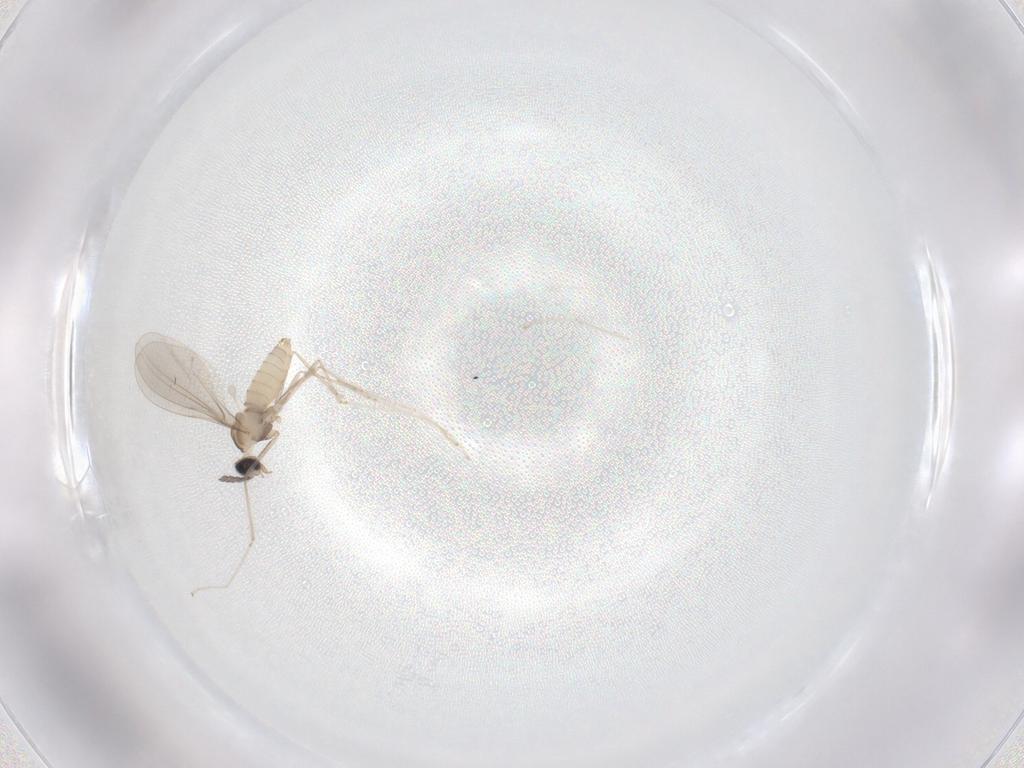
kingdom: Animalia
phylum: Arthropoda
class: Insecta
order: Diptera
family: Cecidomyiidae
